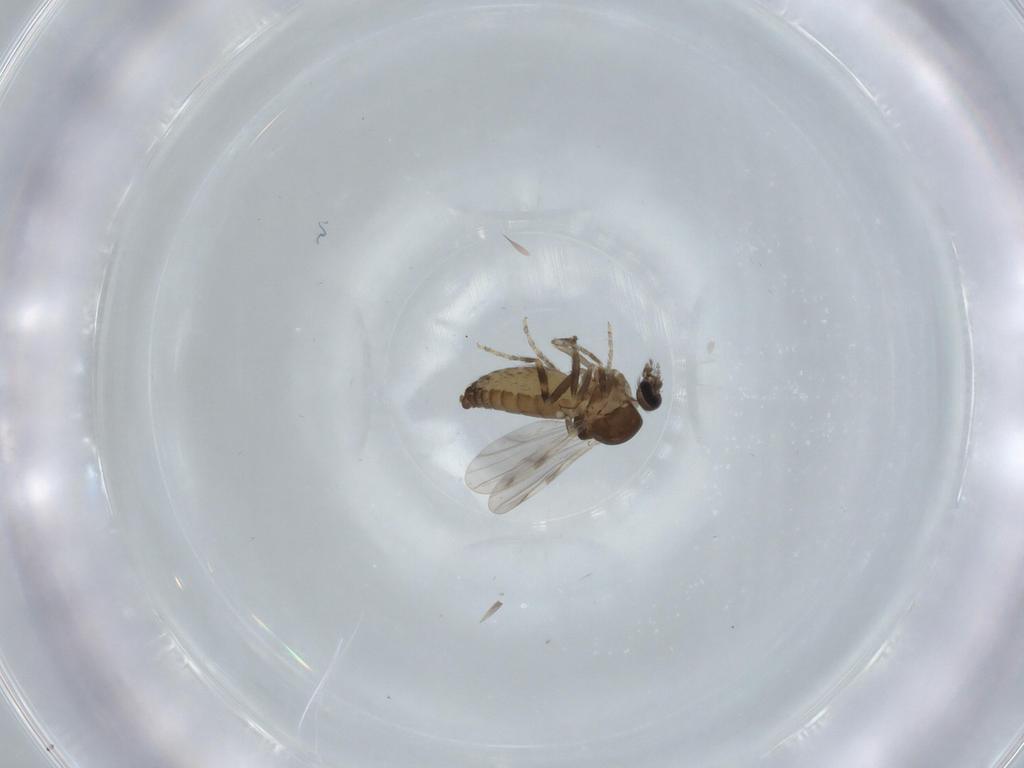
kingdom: Animalia
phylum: Arthropoda
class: Insecta
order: Diptera
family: Ceratopogonidae
